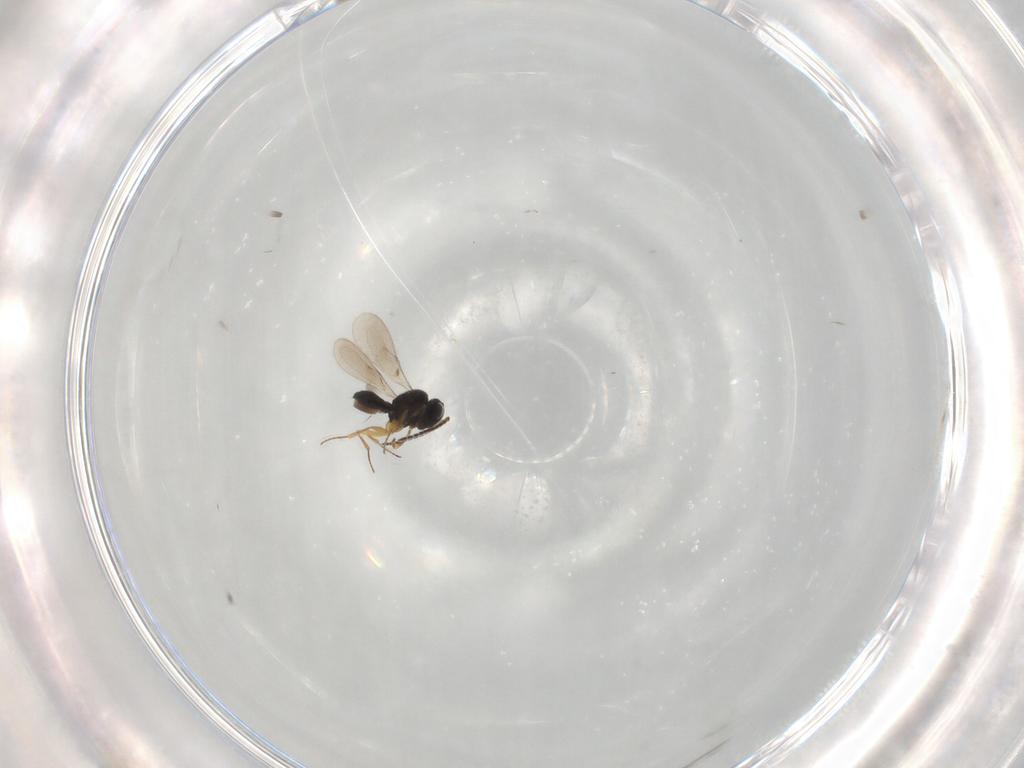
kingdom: Animalia
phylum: Arthropoda
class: Insecta
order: Hymenoptera
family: Scelionidae
